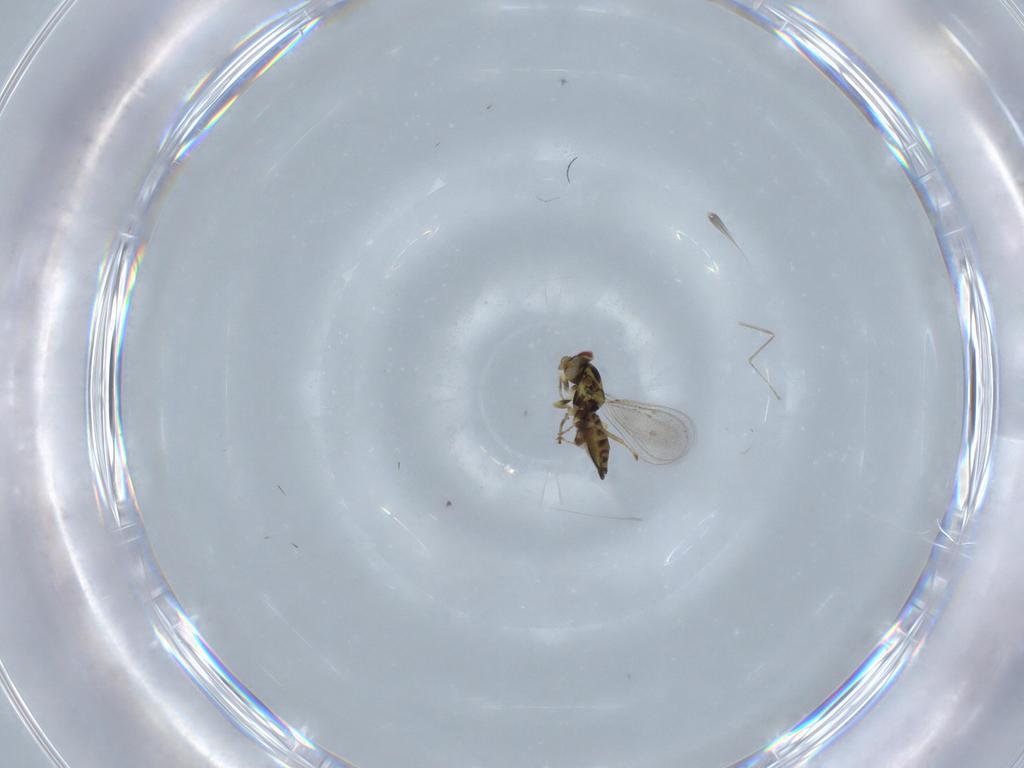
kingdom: Animalia
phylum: Arthropoda
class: Insecta
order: Hymenoptera
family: Eulophidae
